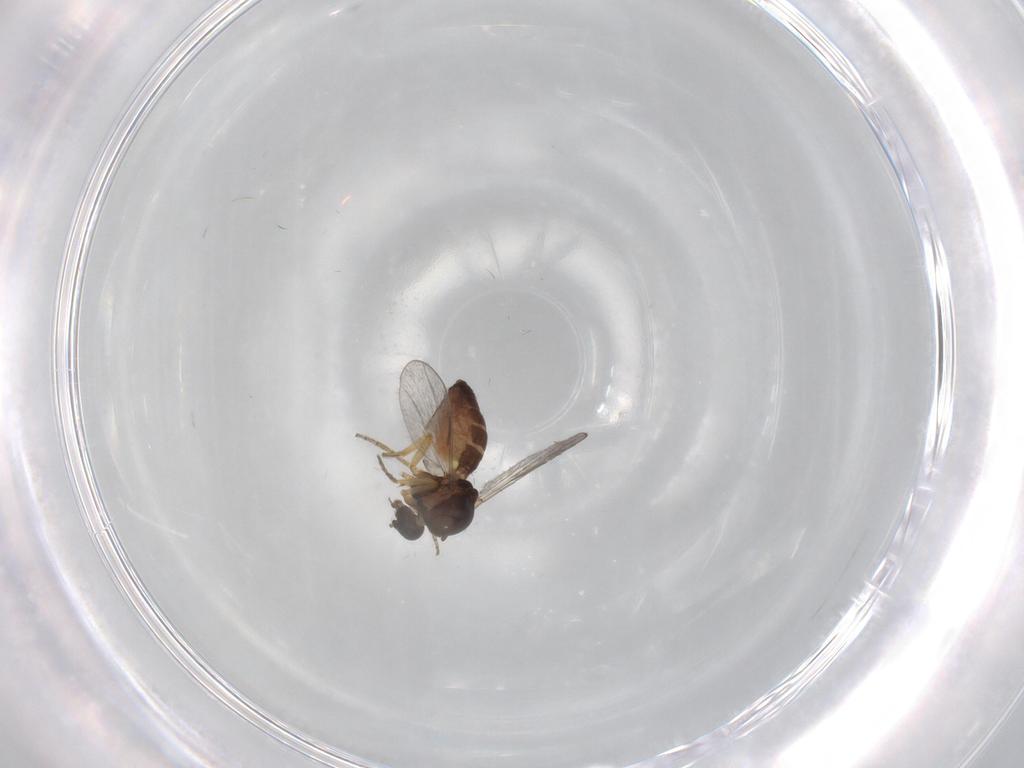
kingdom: Animalia
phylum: Arthropoda
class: Insecta
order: Diptera
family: Ceratopogonidae
